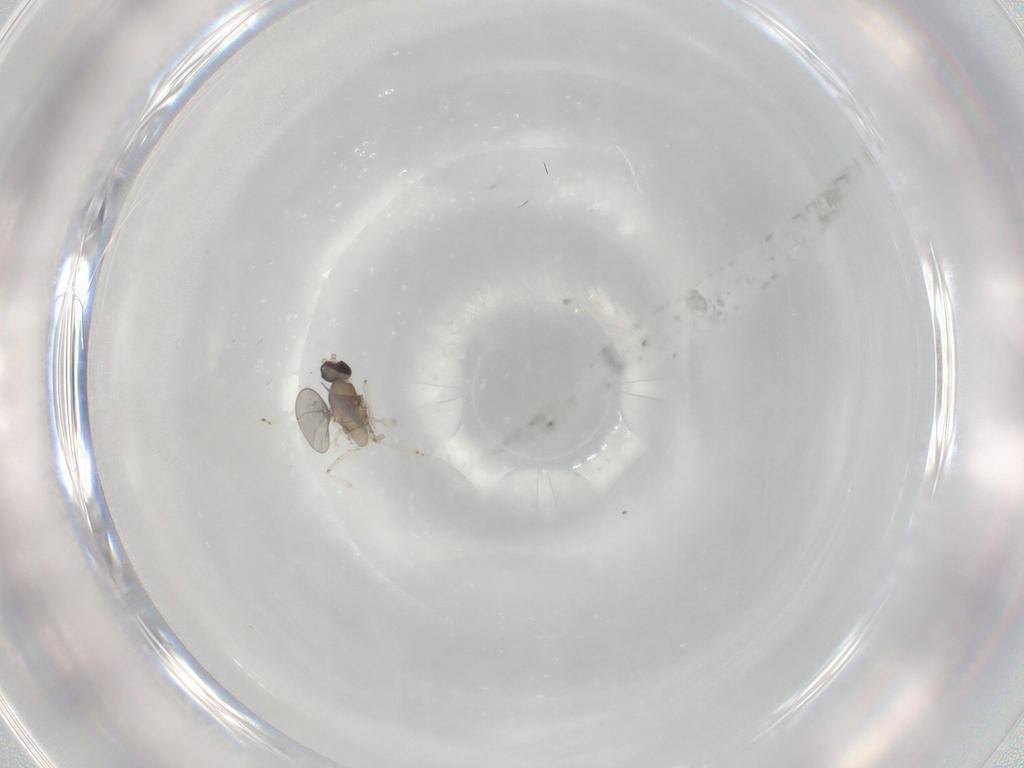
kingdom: Animalia
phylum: Arthropoda
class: Insecta
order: Diptera
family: Cecidomyiidae
